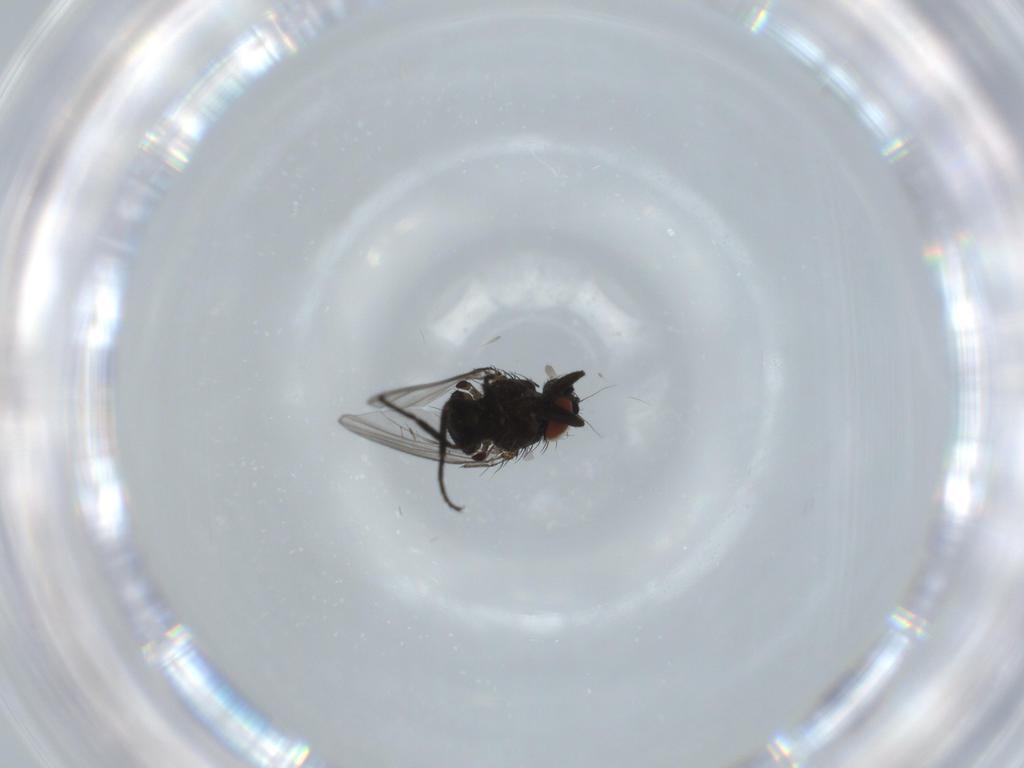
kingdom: Animalia
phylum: Arthropoda
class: Insecta
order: Diptera
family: Milichiidae
